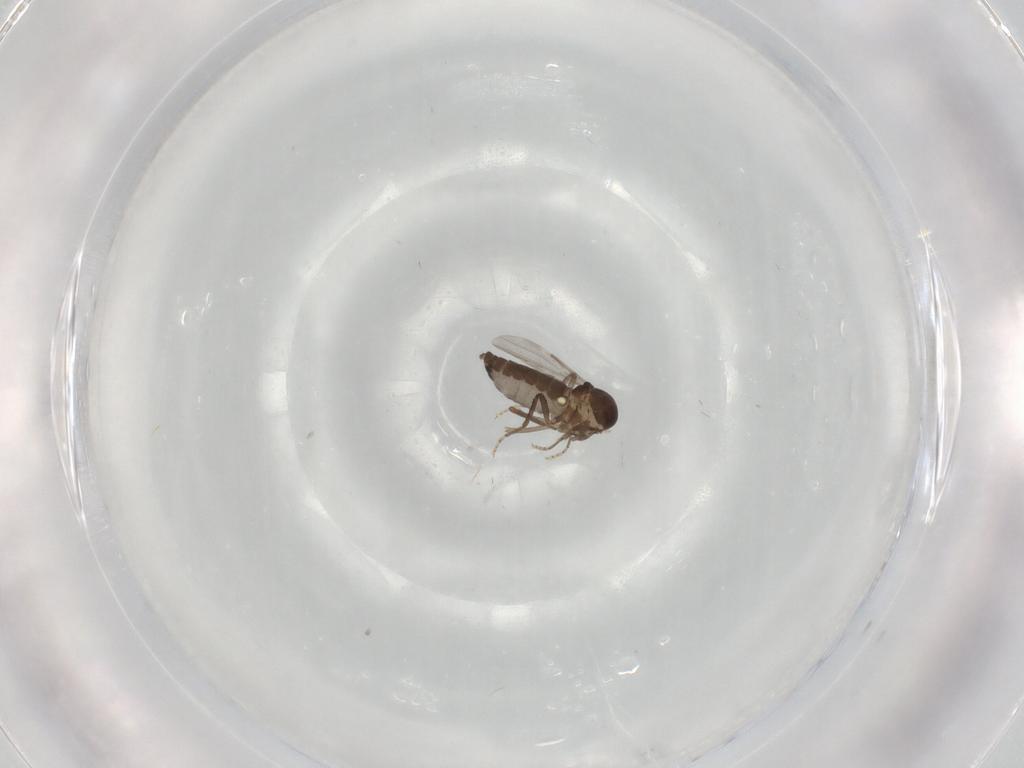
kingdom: Animalia
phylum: Arthropoda
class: Insecta
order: Diptera
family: Ceratopogonidae
